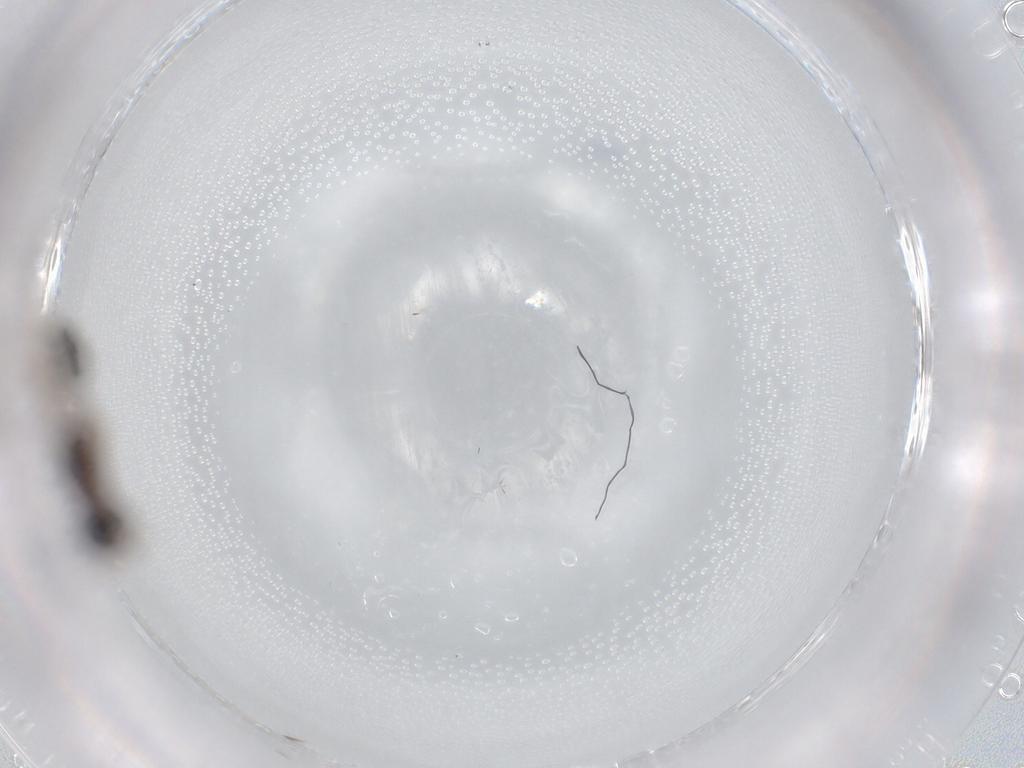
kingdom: Animalia
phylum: Arthropoda
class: Insecta
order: Hymenoptera
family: Formicidae
